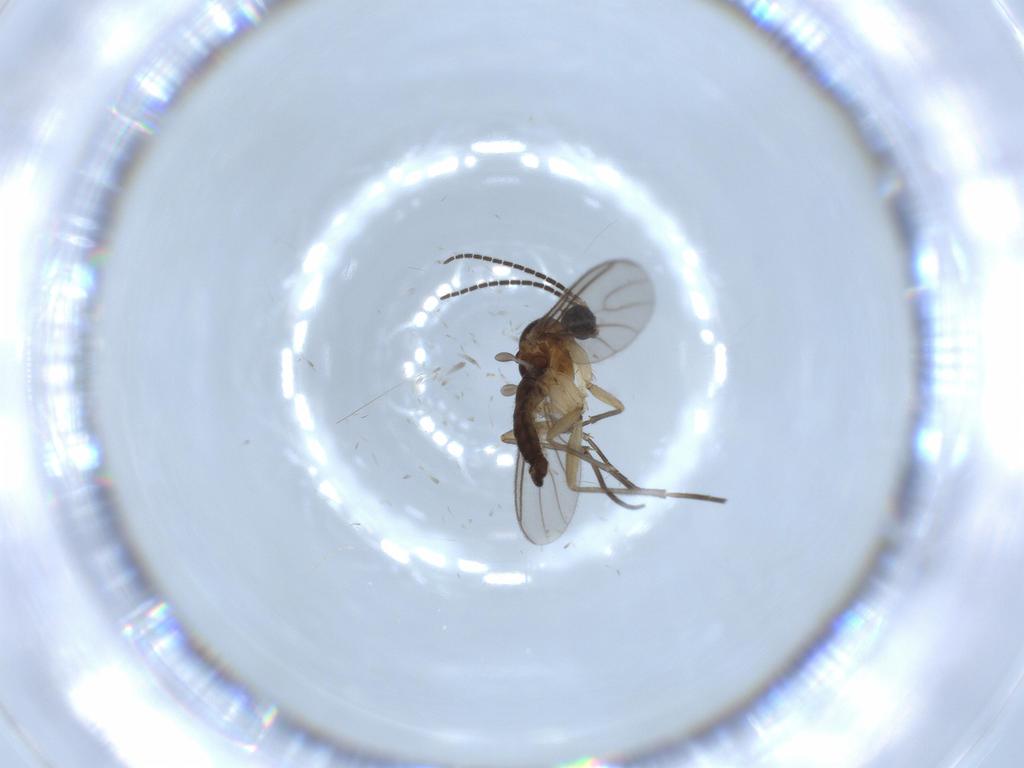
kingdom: Animalia
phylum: Arthropoda
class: Insecta
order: Diptera
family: Sciaridae
